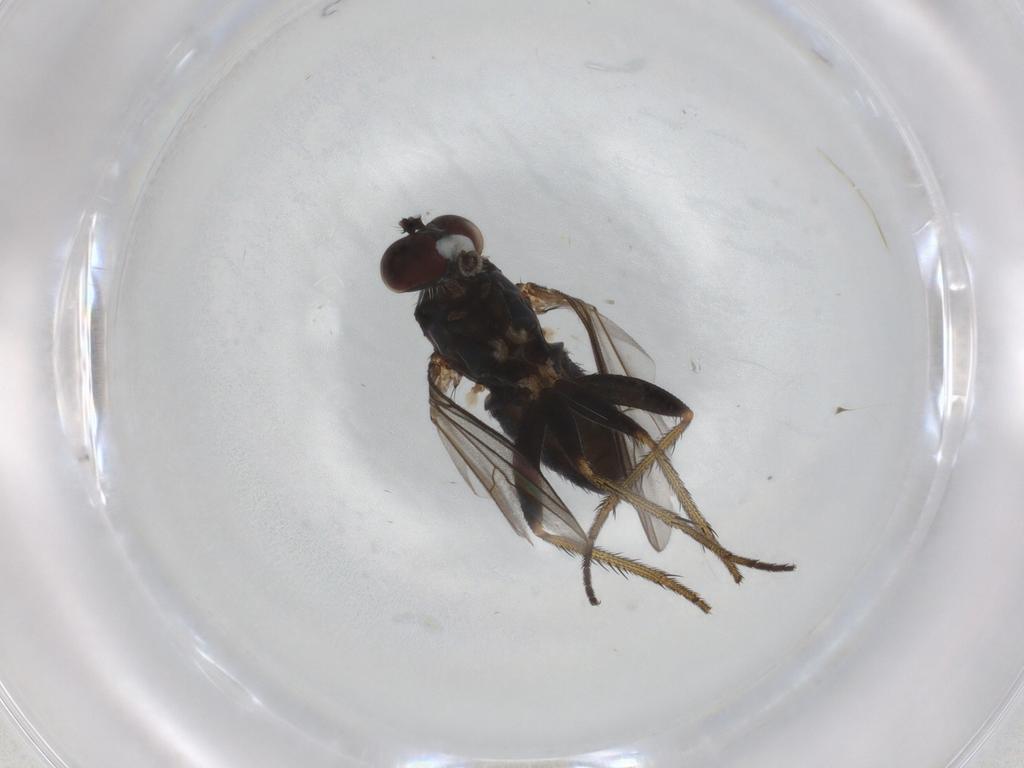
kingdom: Animalia
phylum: Arthropoda
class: Insecta
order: Diptera
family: Dolichopodidae
